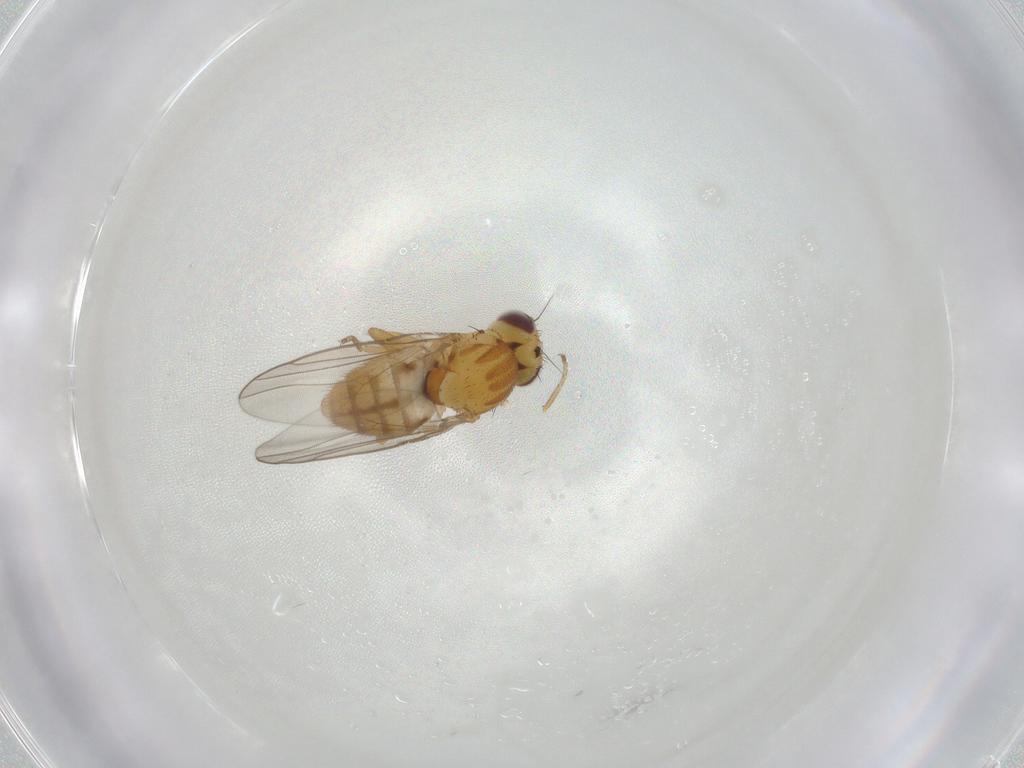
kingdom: Animalia
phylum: Arthropoda
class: Insecta
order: Diptera
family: Chloropidae
